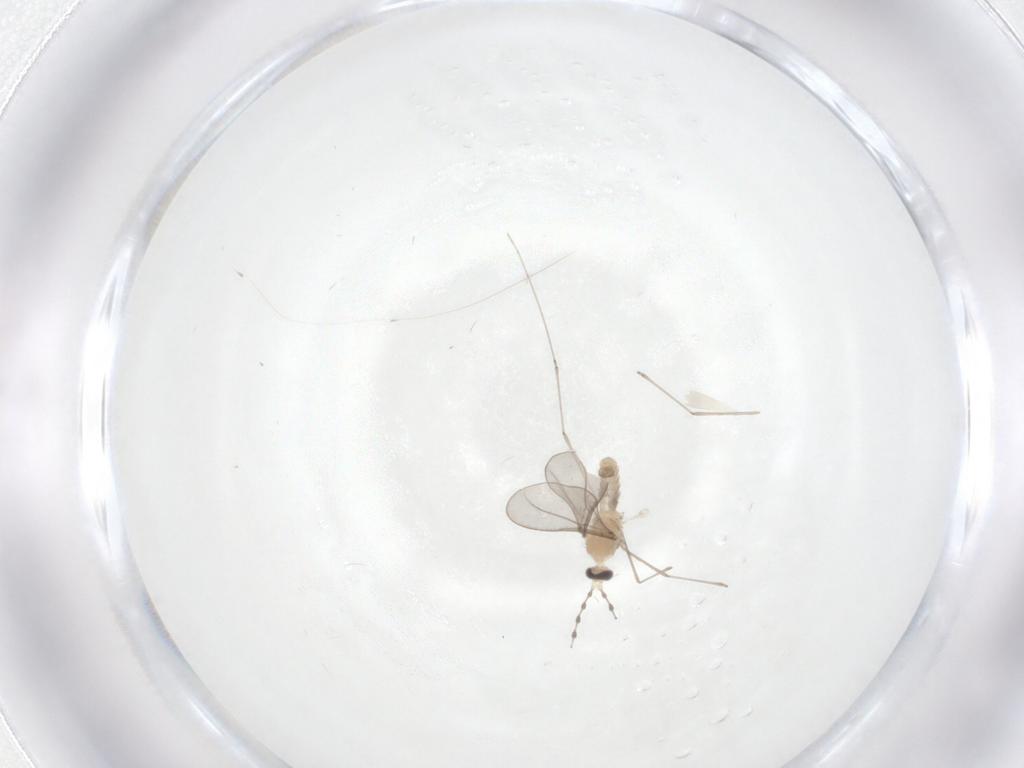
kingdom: Animalia
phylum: Arthropoda
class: Insecta
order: Diptera
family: Cecidomyiidae
